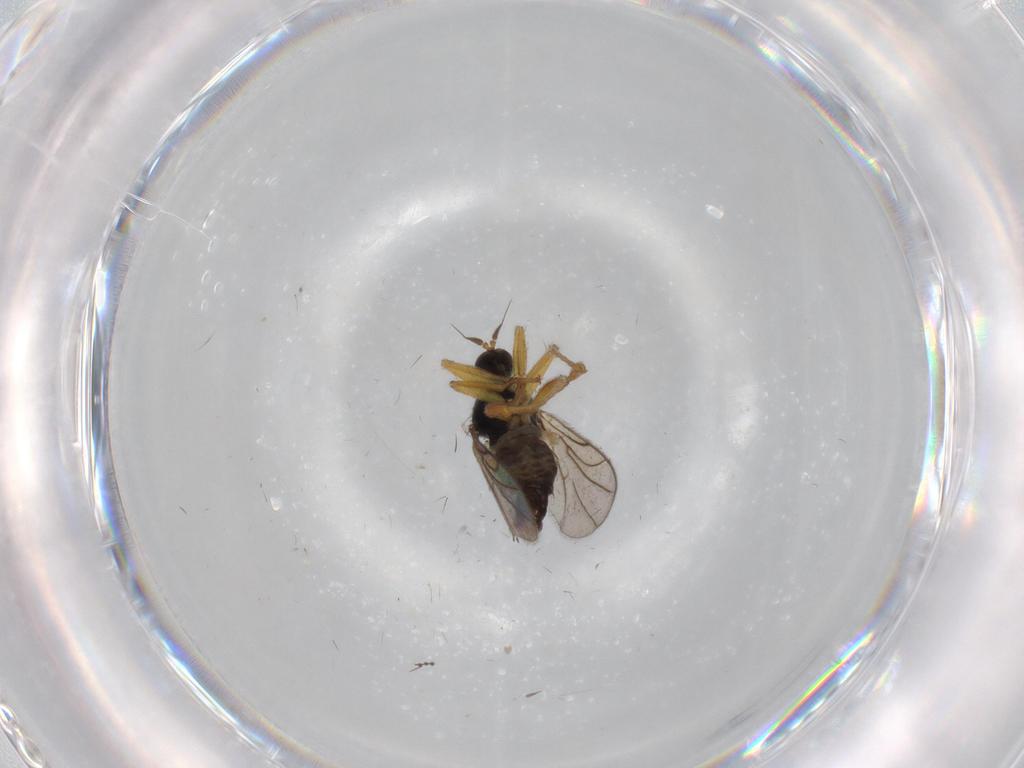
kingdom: Animalia
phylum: Arthropoda
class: Insecta
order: Diptera
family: Hybotidae
